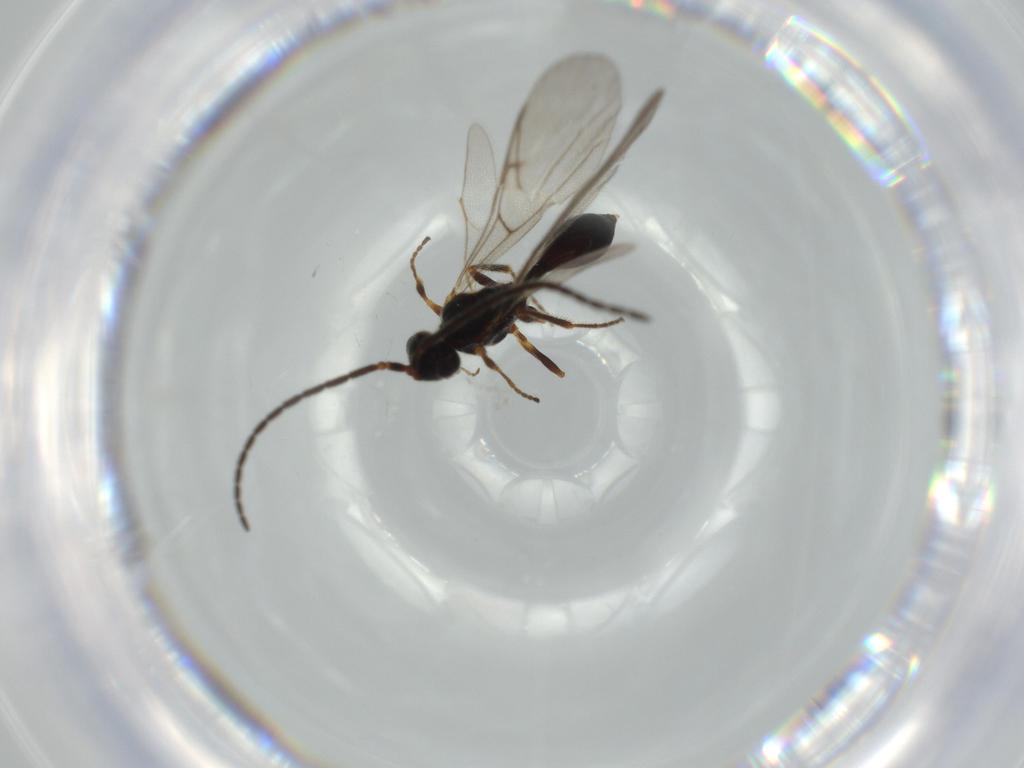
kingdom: Animalia
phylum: Arthropoda
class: Insecta
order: Hymenoptera
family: Diapriidae
